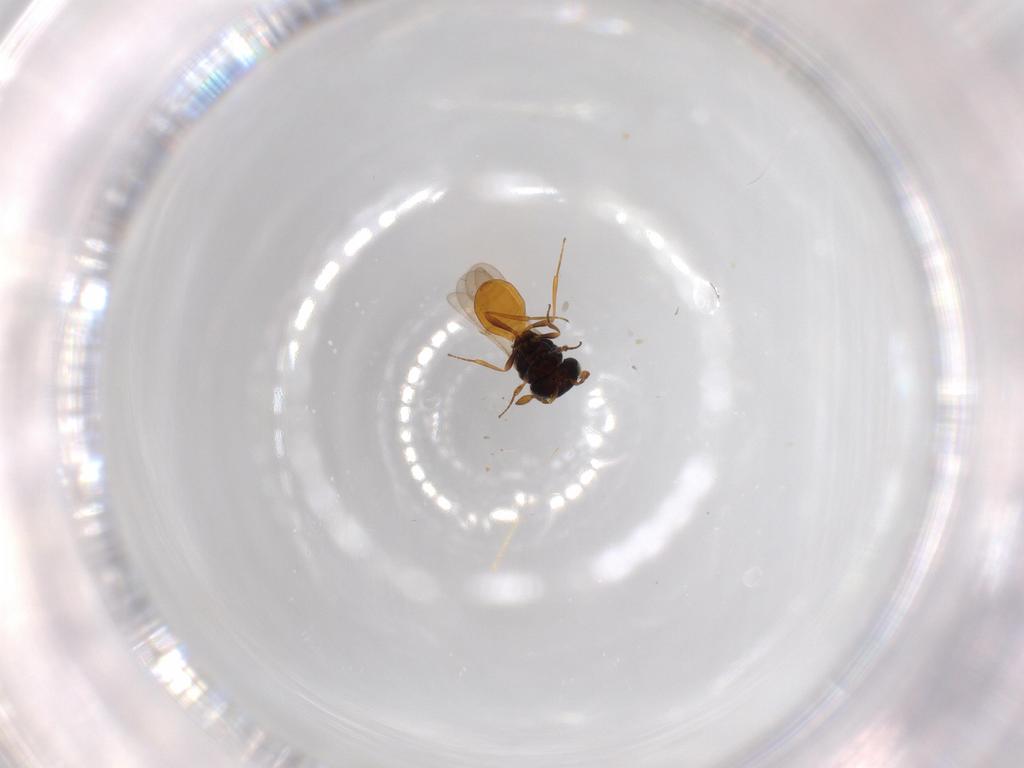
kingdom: Animalia
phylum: Arthropoda
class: Insecta
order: Hymenoptera
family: Scelionidae
